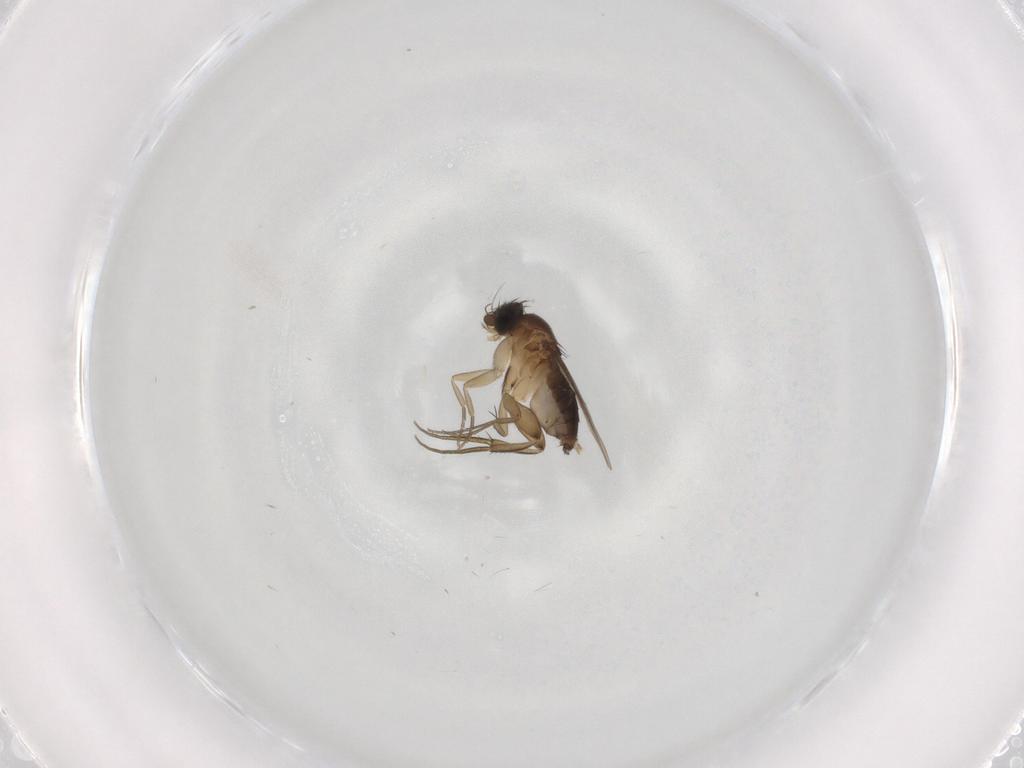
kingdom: Animalia
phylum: Arthropoda
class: Insecta
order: Diptera
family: Phoridae
